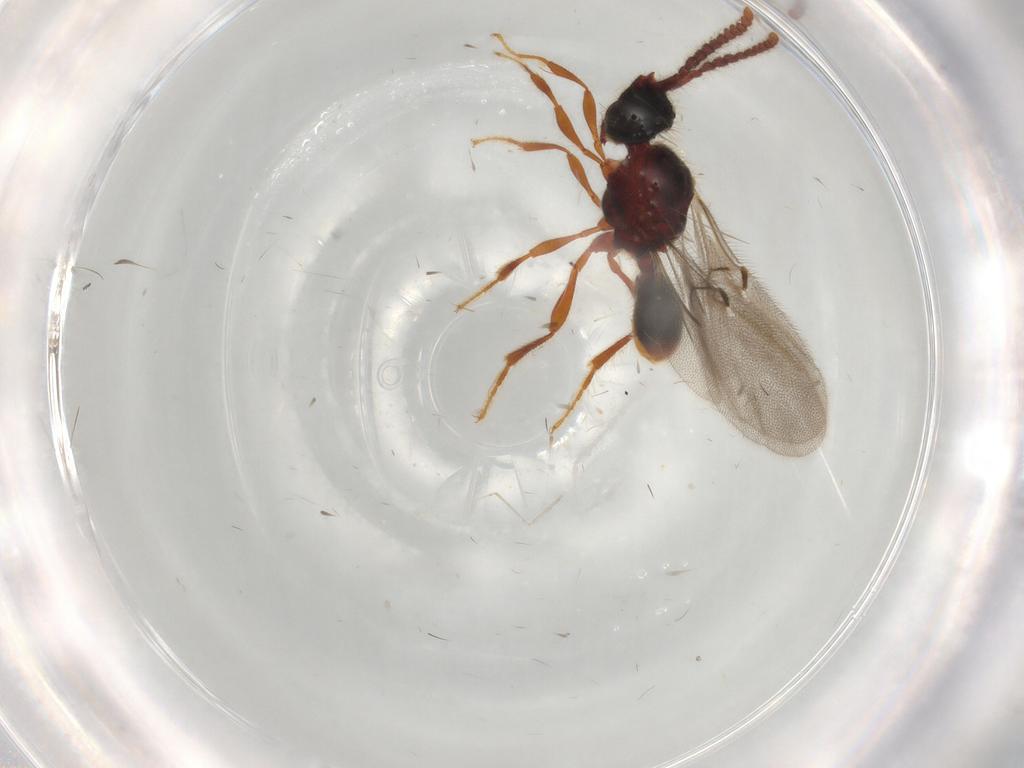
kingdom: Animalia
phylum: Arthropoda
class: Insecta
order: Hymenoptera
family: Diapriidae
